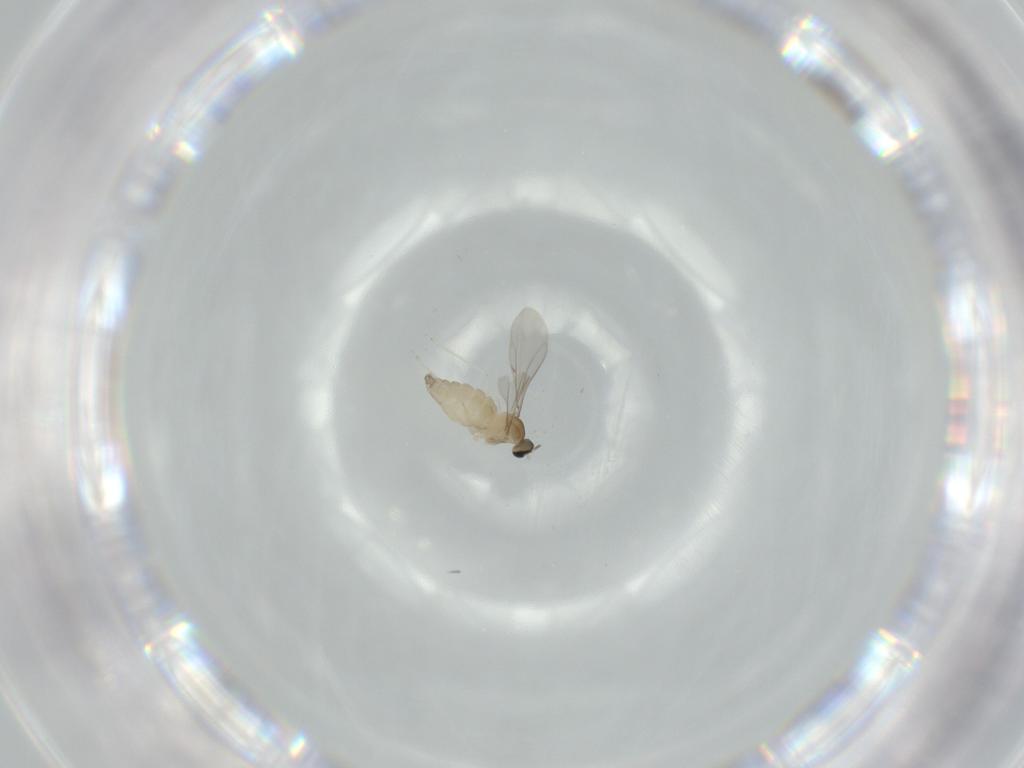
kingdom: Animalia
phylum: Arthropoda
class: Insecta
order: Diptera
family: Cecidomyiidae
